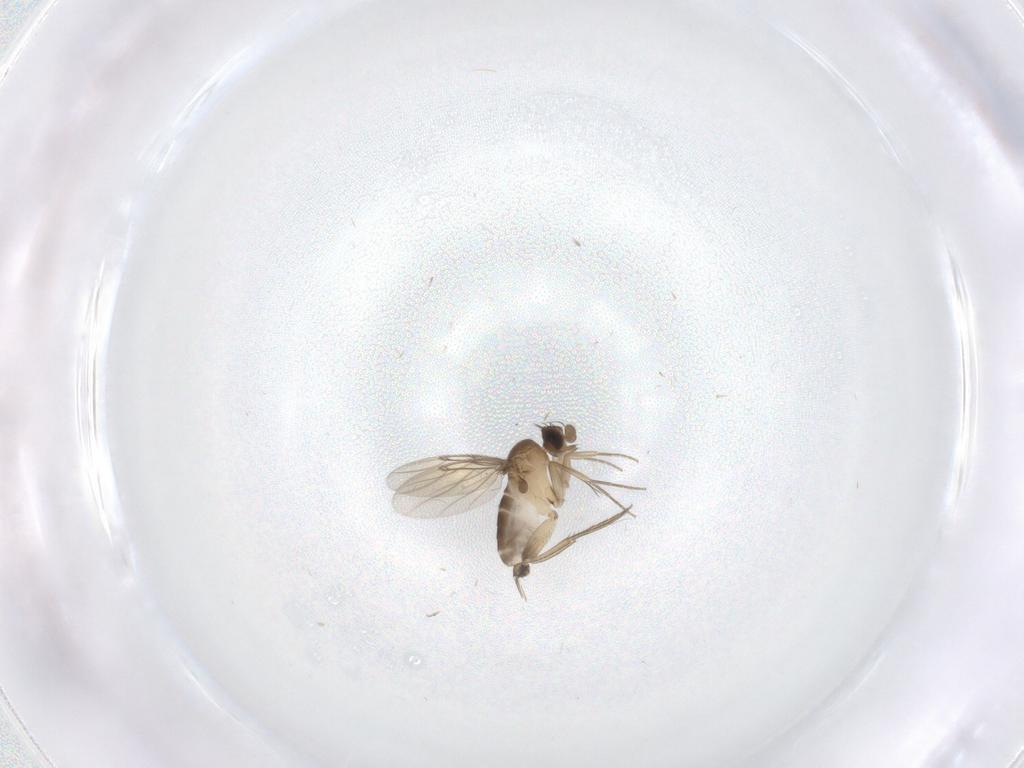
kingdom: Animalia
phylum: Arthropoda
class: Insecta
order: Diptera
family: Phoridae
